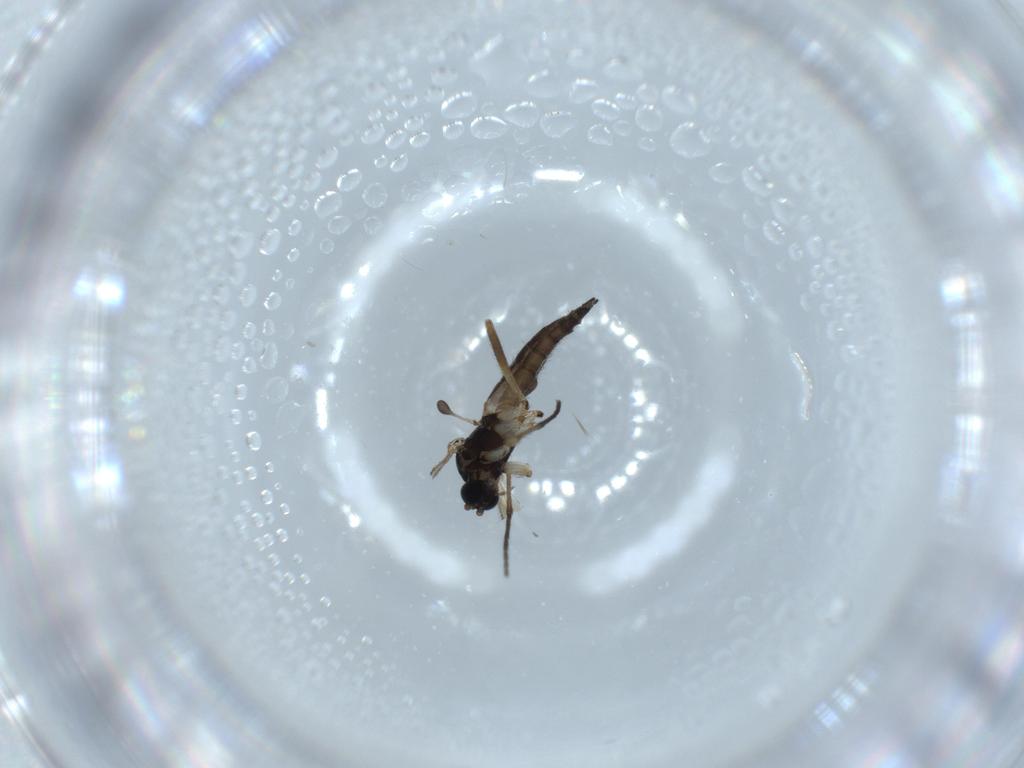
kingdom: Animalia
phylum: Arthropoda
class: Insecta
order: Diptera
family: Sciaridae
